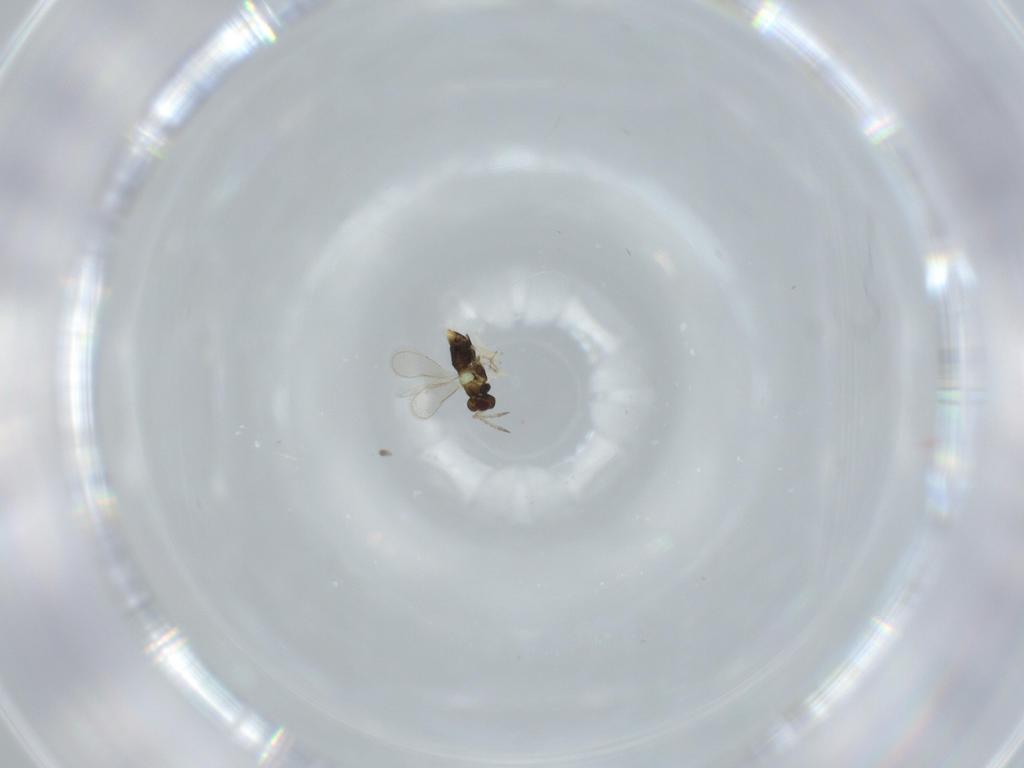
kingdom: Animalia
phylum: Arthropoda
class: Insecta
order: Hymenoptera
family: Aphelinidae
